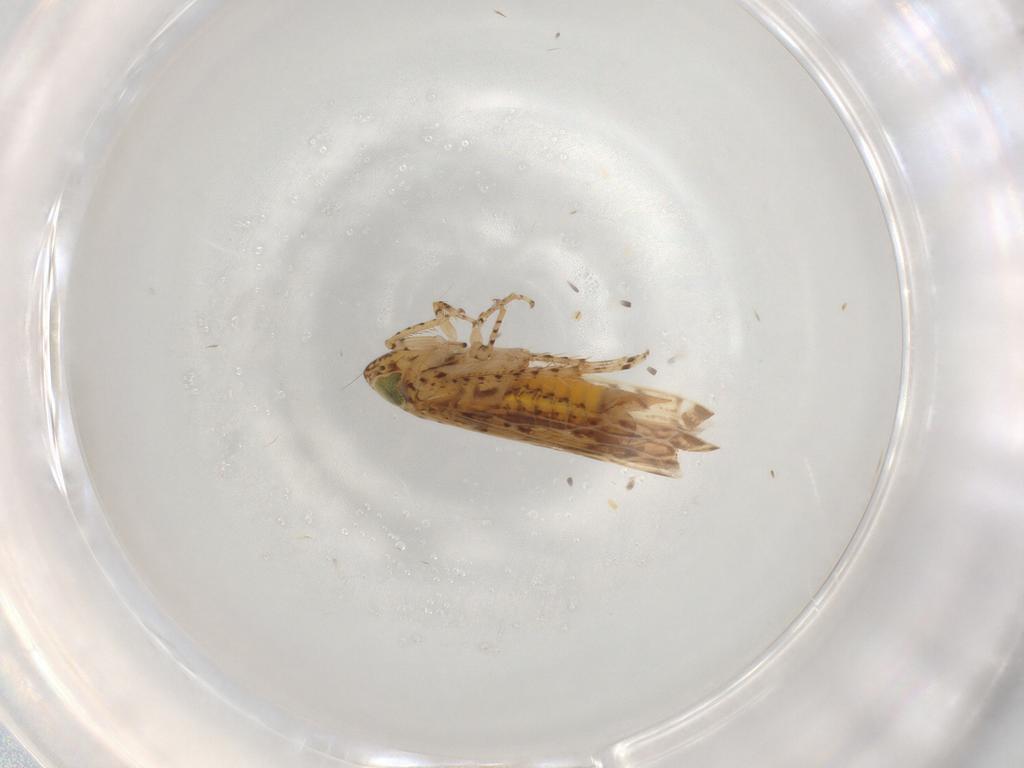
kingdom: Animalia
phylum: Arthropoda
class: Insecta
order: Hemiptera
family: Cicadellidae
